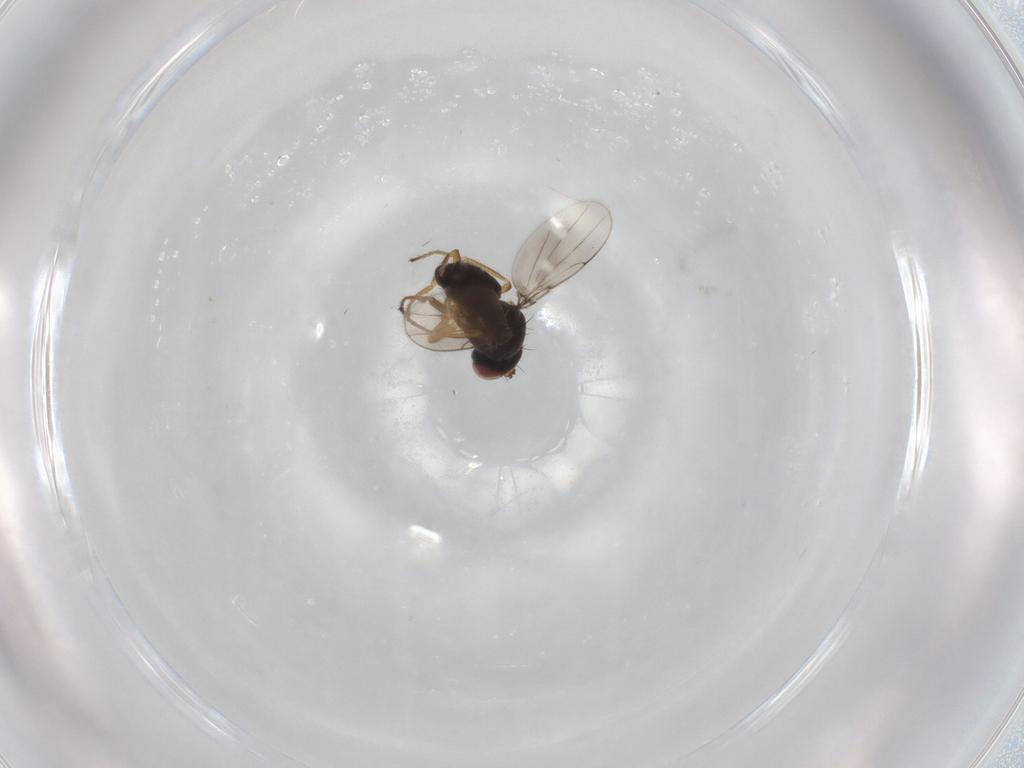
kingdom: Animalia
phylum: Arthropoda
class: Insecta
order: Diptera
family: Ephydridae
